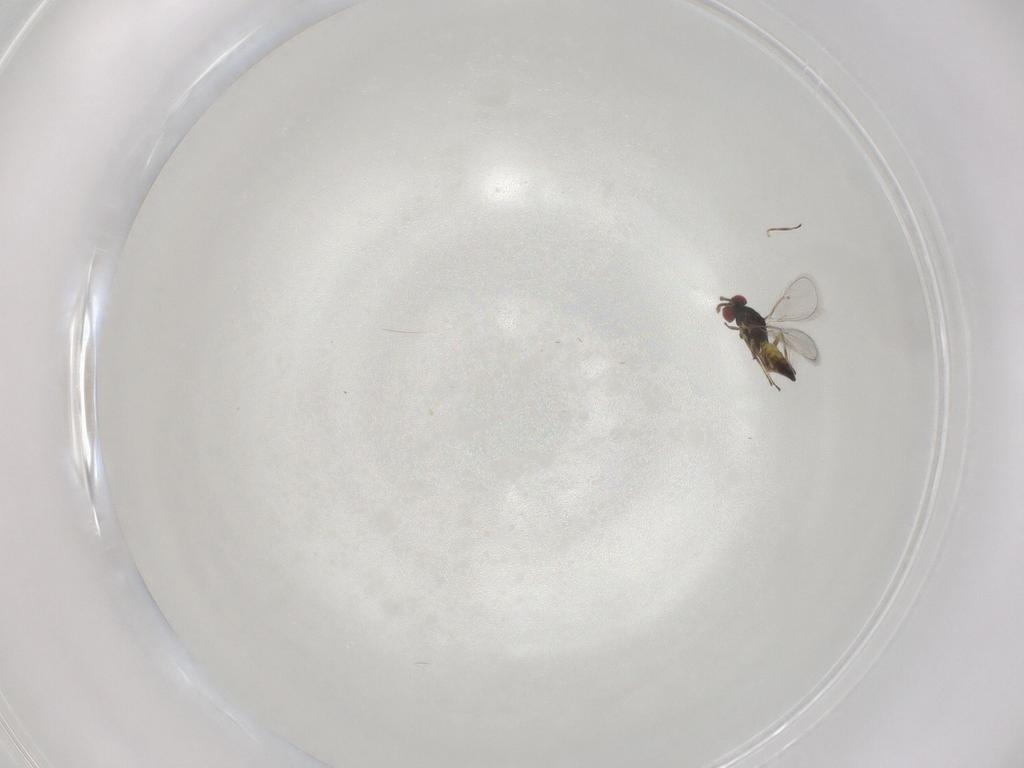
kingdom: Animalia
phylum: Arthropoda
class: Insecta
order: Hymenoptera
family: Eulophidae
